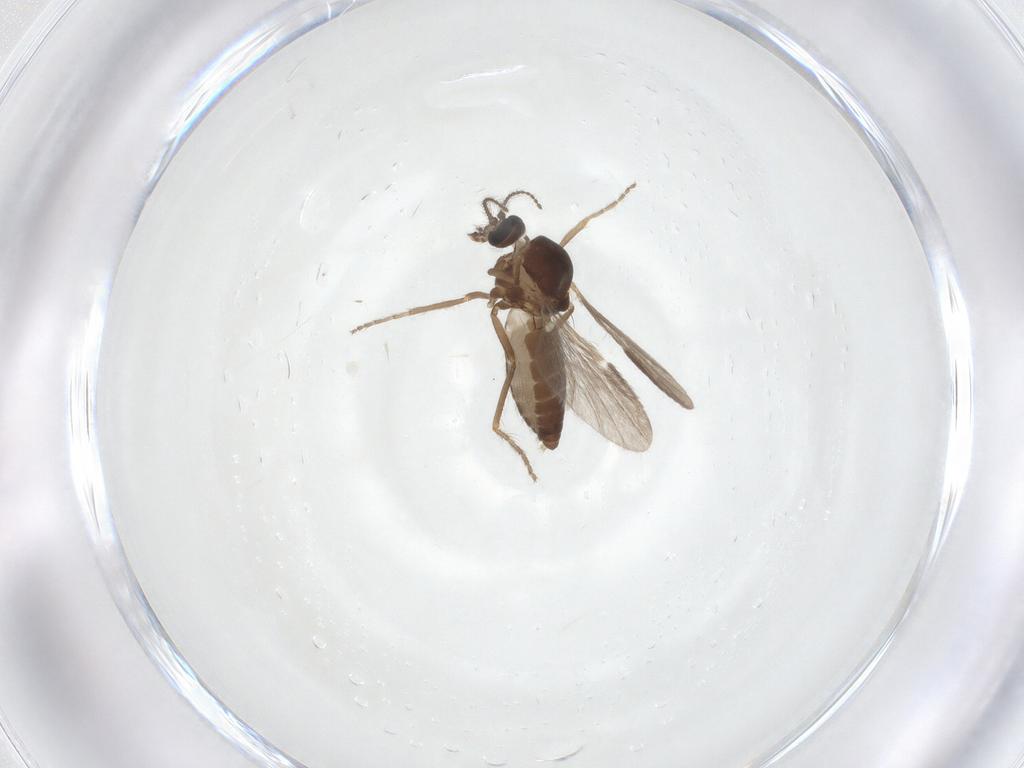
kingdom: Animalia
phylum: Arthropoda
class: Insecta
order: Diptera
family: Ceratopogonidae
